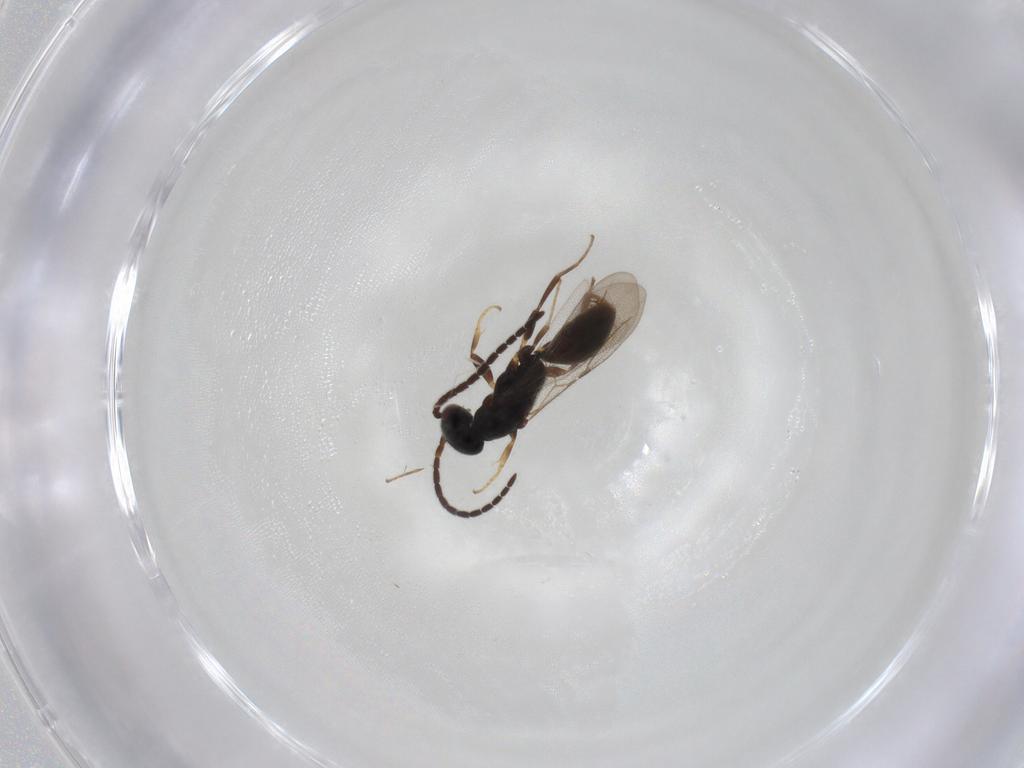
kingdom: Animalia
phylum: Arthropoda
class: Insecta
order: Hymenoptera
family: Bethylidae
